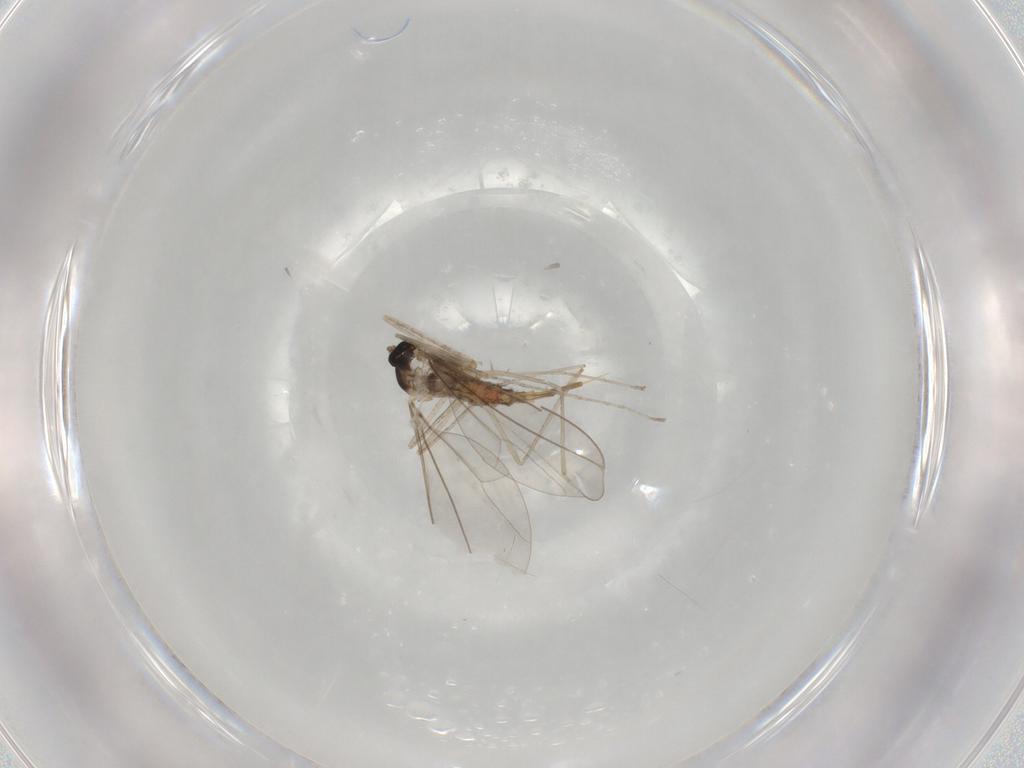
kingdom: Animalia
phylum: Arthropoda
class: Insecta
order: Diptera
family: Cecidomyiidae
